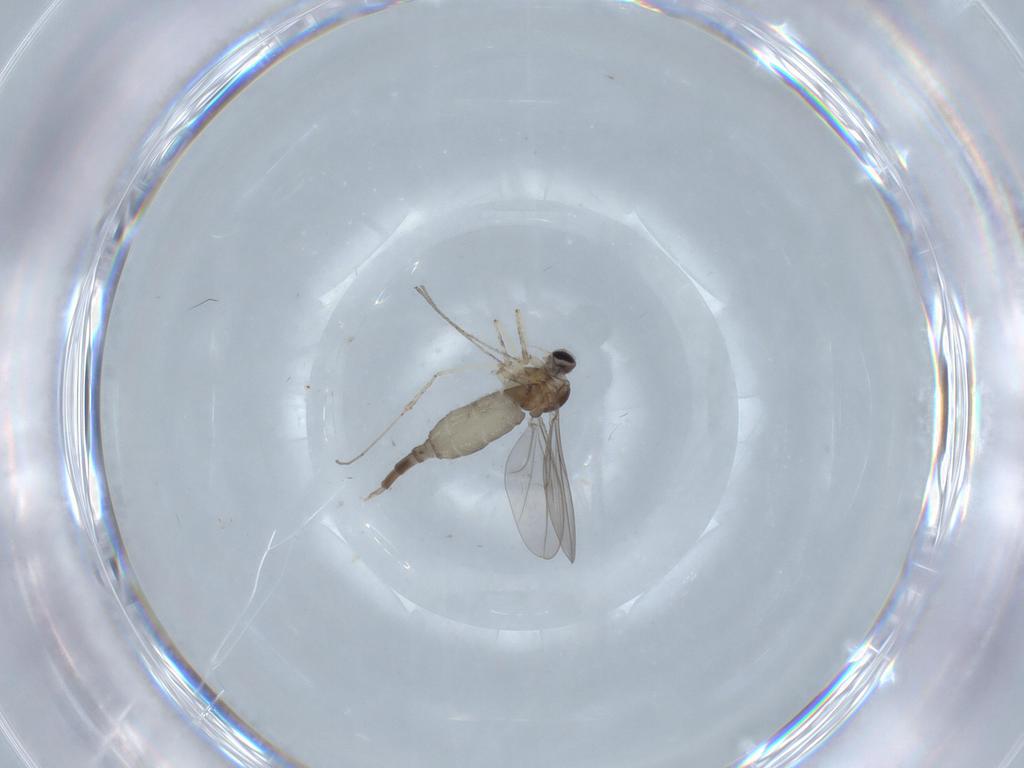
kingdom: Animalia
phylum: Arthropoda
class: Insecta
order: Diptera
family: Cecidomyiidae
